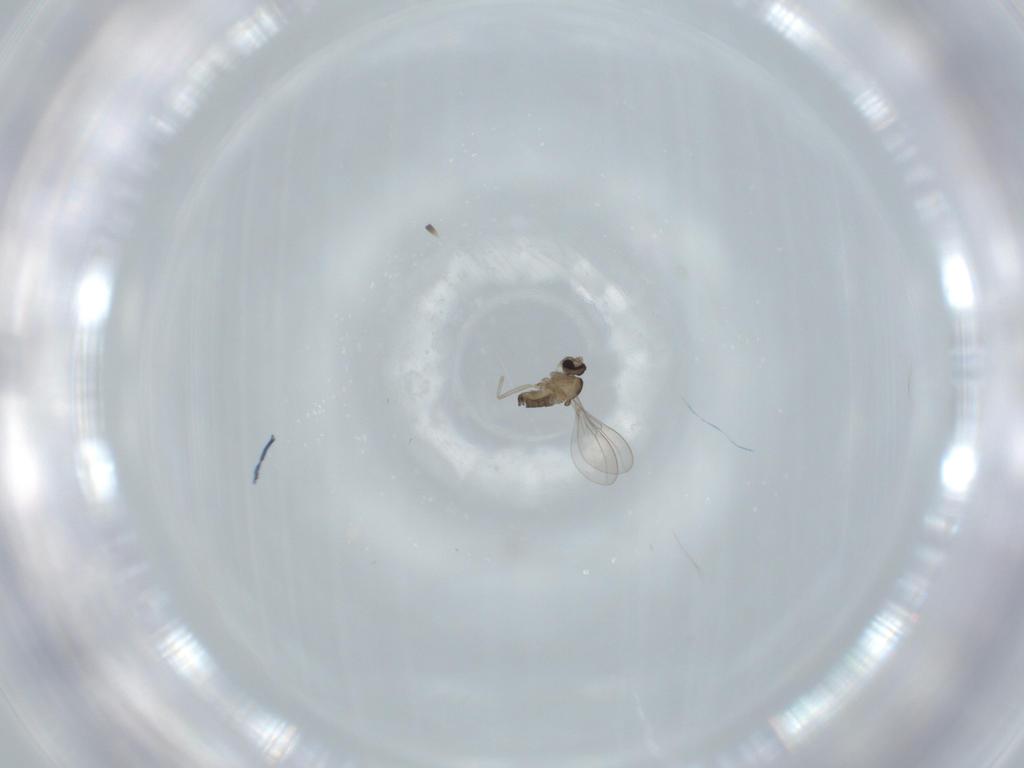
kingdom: Animalia
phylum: Arthropoda
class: Insecta
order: Diptera
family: Cecidomyiidae
